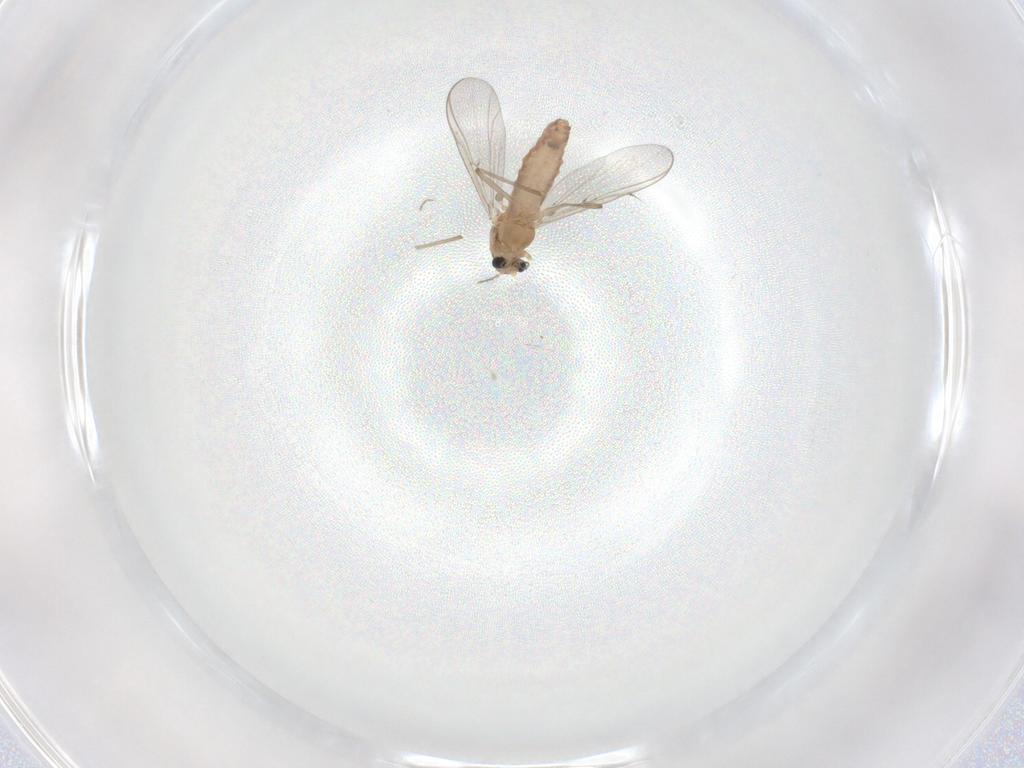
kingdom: Animalia
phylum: Arthropoda
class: Insecta
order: Diptera
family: Chironomidae
